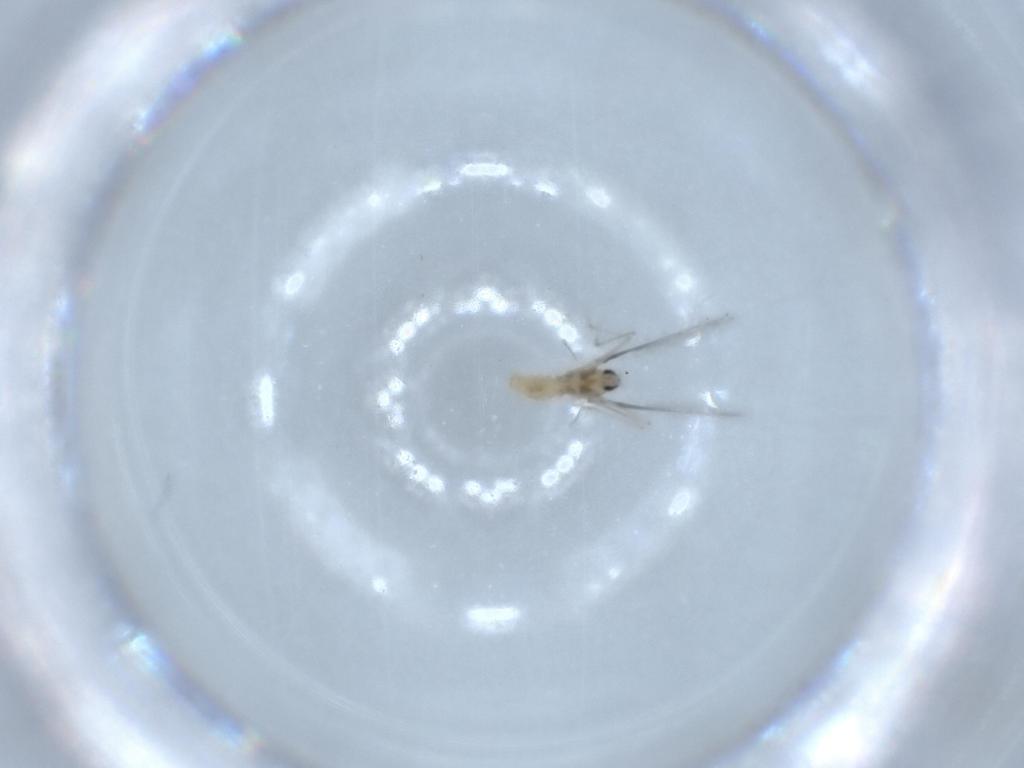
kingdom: Animalia
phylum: Arthropoda
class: Insecta
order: Diptera
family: Cecidomyiidae
